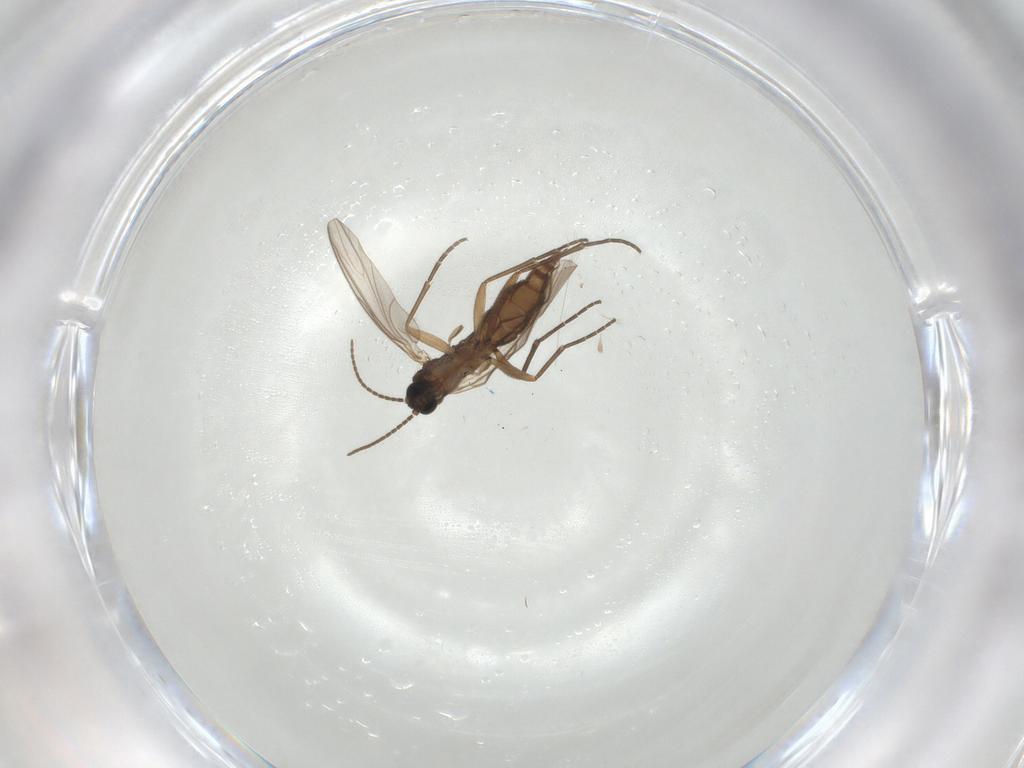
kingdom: Animalia
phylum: Arthropoda
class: Insecta
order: Diptera
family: Sciaridae
